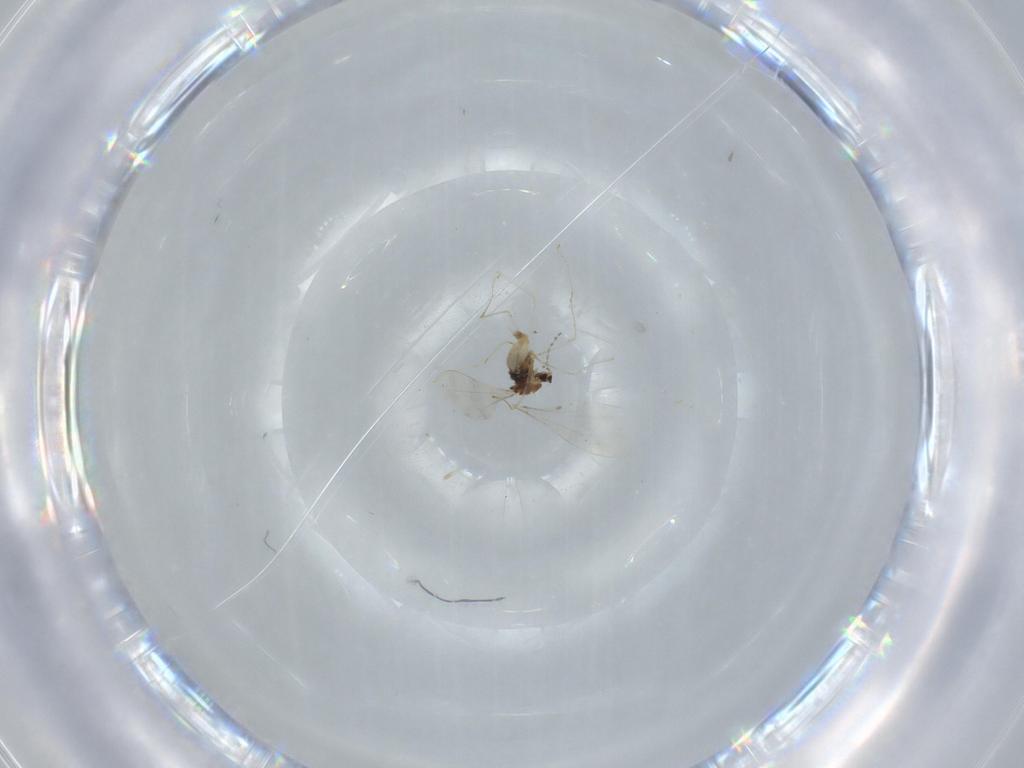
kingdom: Animalia
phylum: Arthropoda
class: Insecta
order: Diptera
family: Cecidomyiidae
